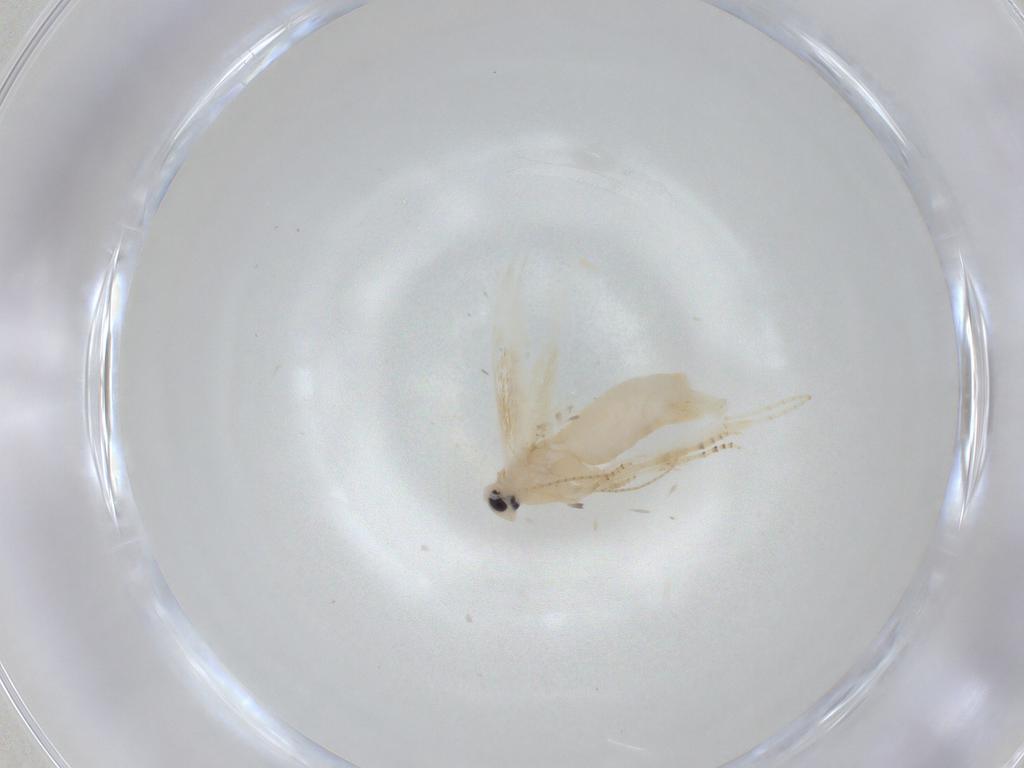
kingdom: Animalia
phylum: Arthropoda
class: Insecta
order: Lepidoptera
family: Bucculatricidae
